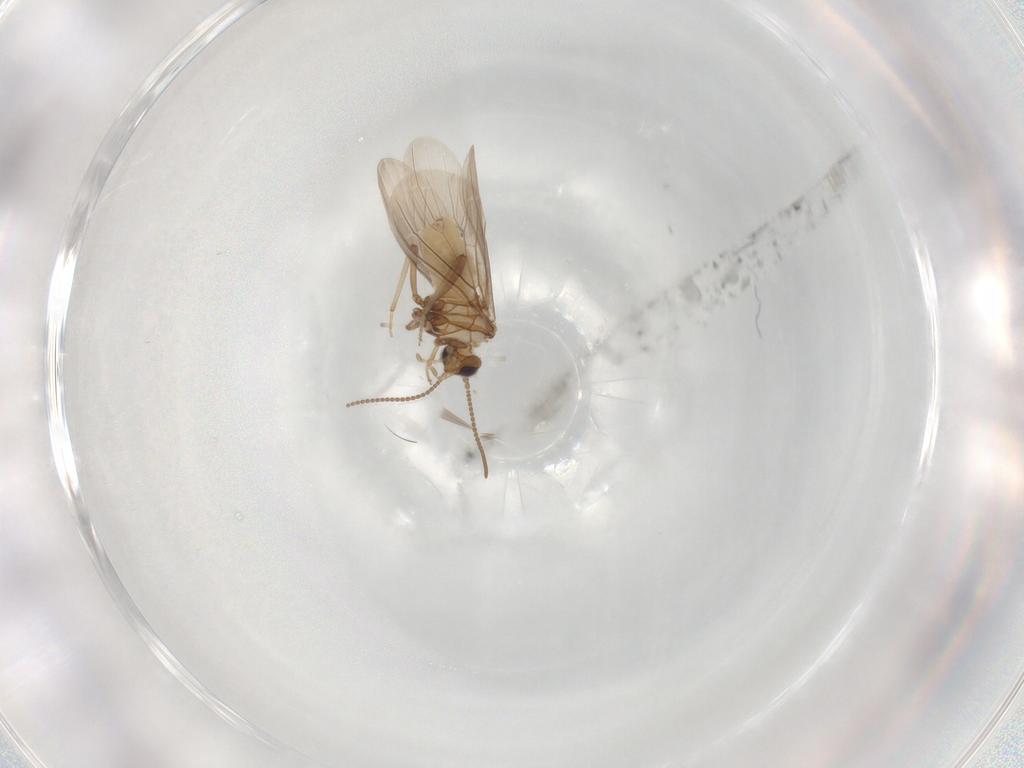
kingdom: Animalia
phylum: Arthropoda
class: Insecta
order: Neuroptera
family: Coniopterygidae
